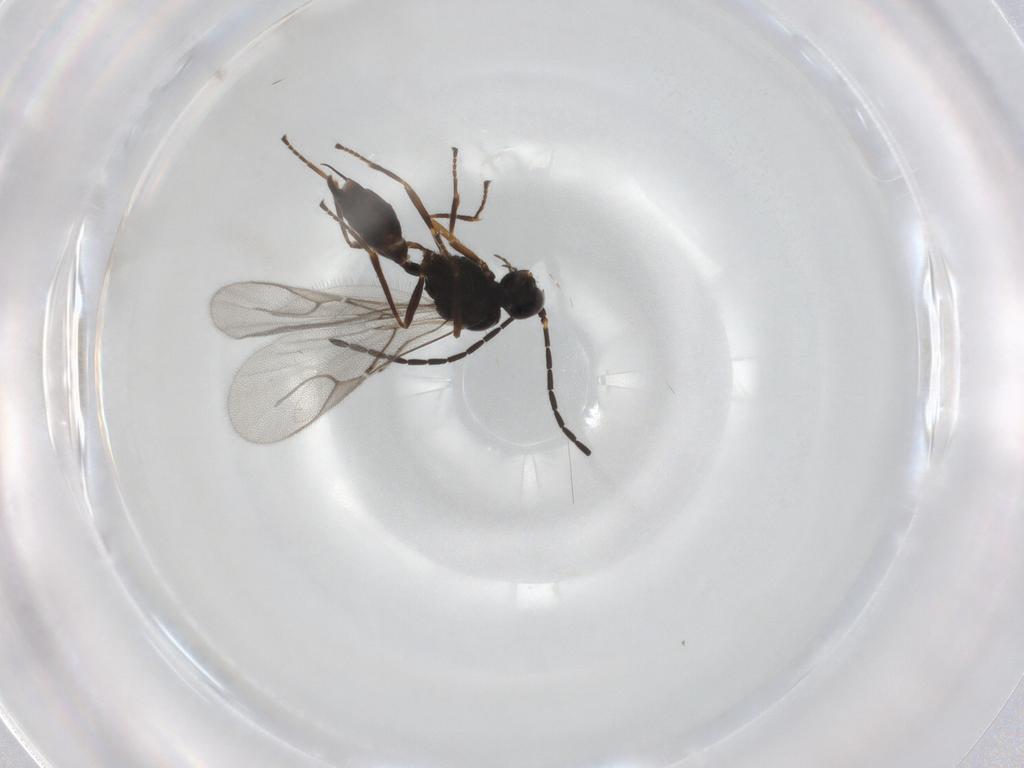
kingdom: Animalia
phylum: Arthropoda
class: Insecta
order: Hymenoptera
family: Braconidae
